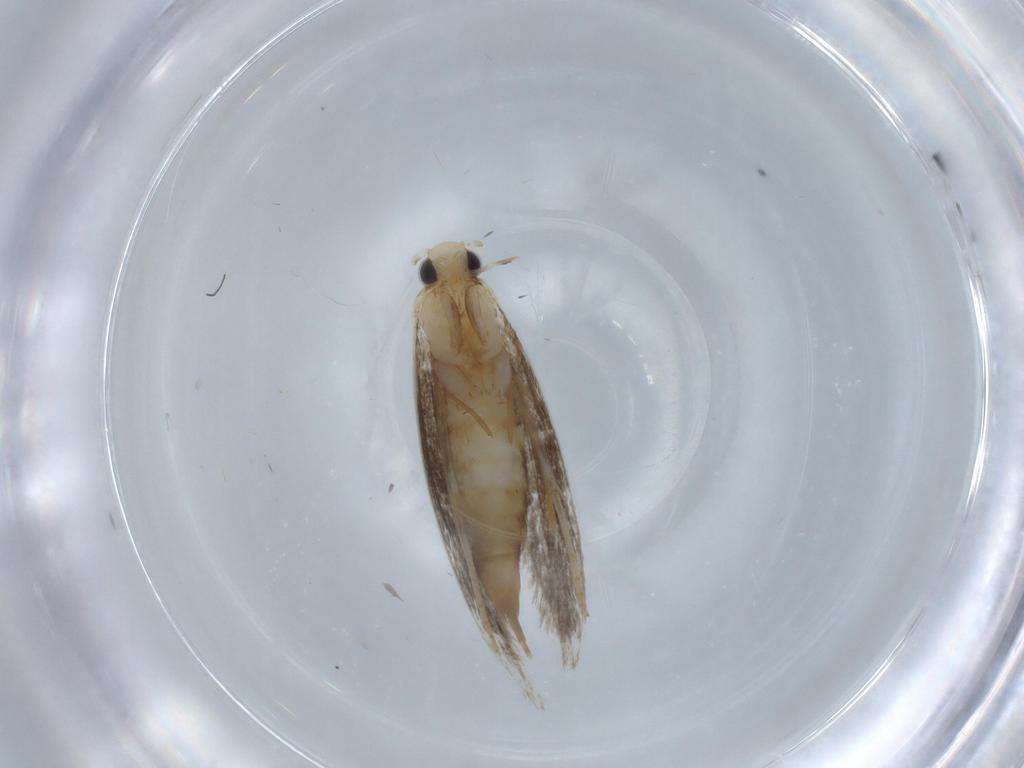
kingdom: Animalia
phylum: Arthropoda
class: Insecta
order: Lepidoptera
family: Tineidae
